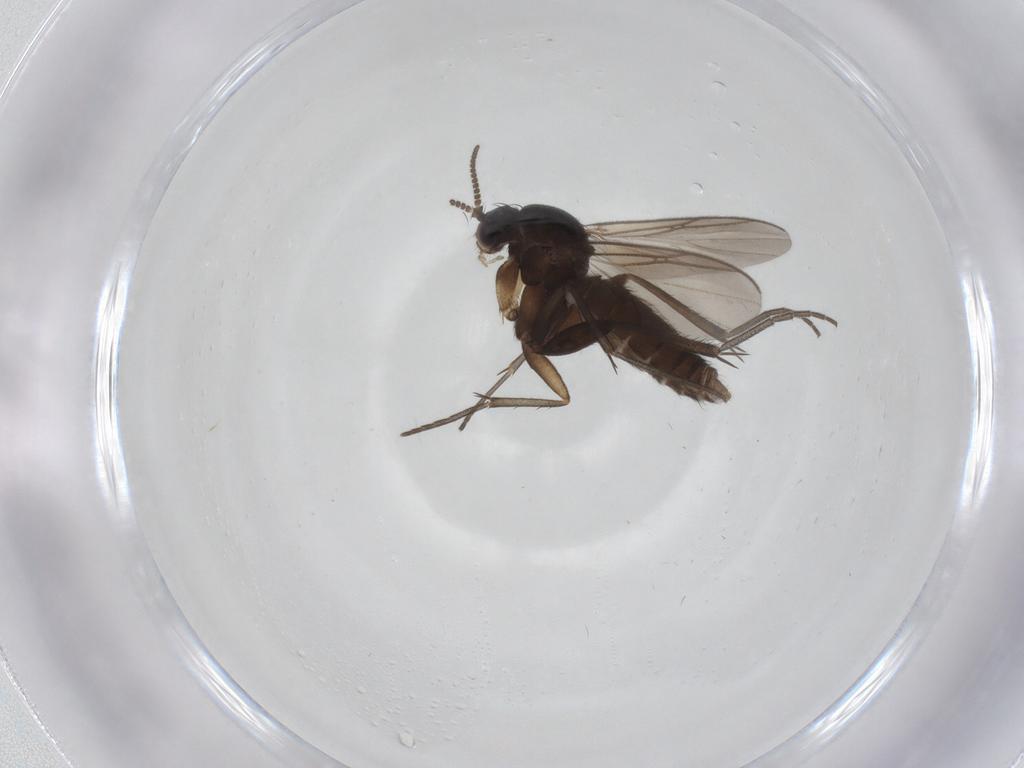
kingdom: Animalia
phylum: Arthropoda
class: Insecta
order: Diptera
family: Mycetophilidae
